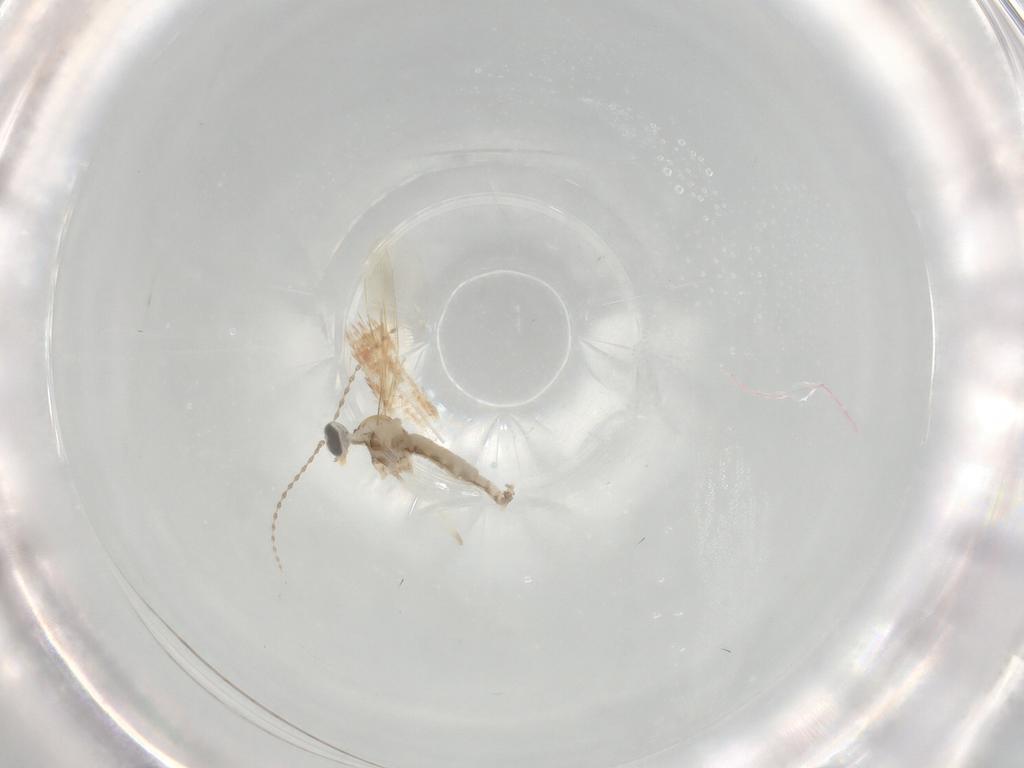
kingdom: Animalia
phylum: Arthropoda
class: Insecta
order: Diptera
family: Cecidomyiidae
